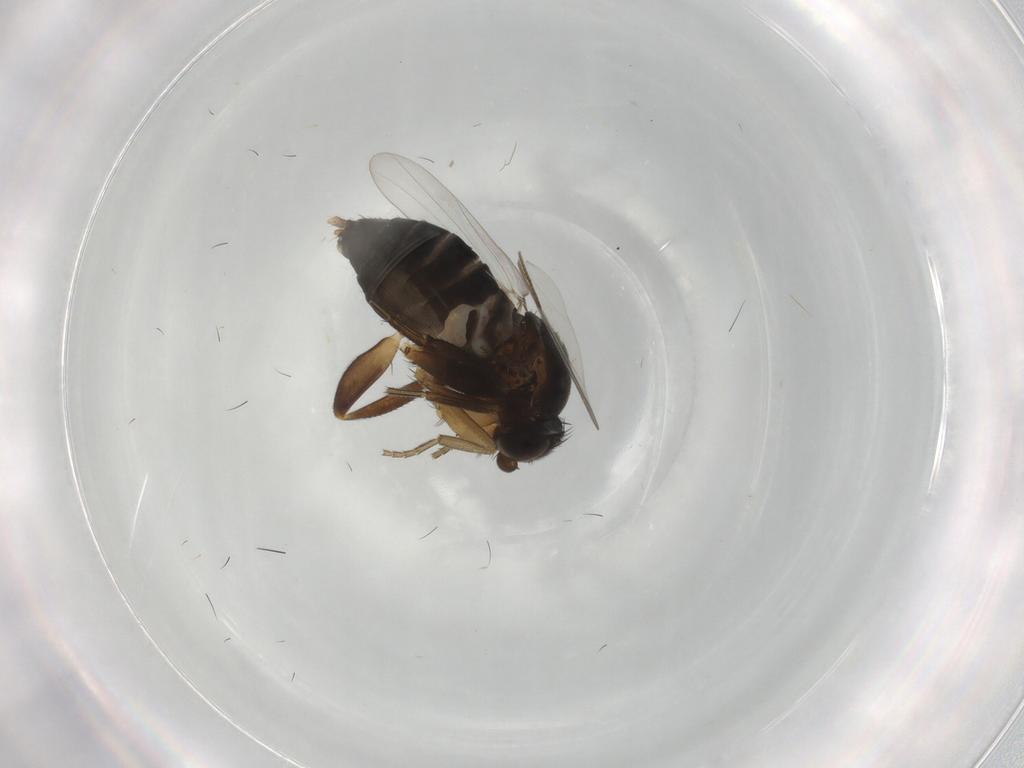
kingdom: Animalia
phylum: Arthropoda
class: Insecta
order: Diptera
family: Phoridae
